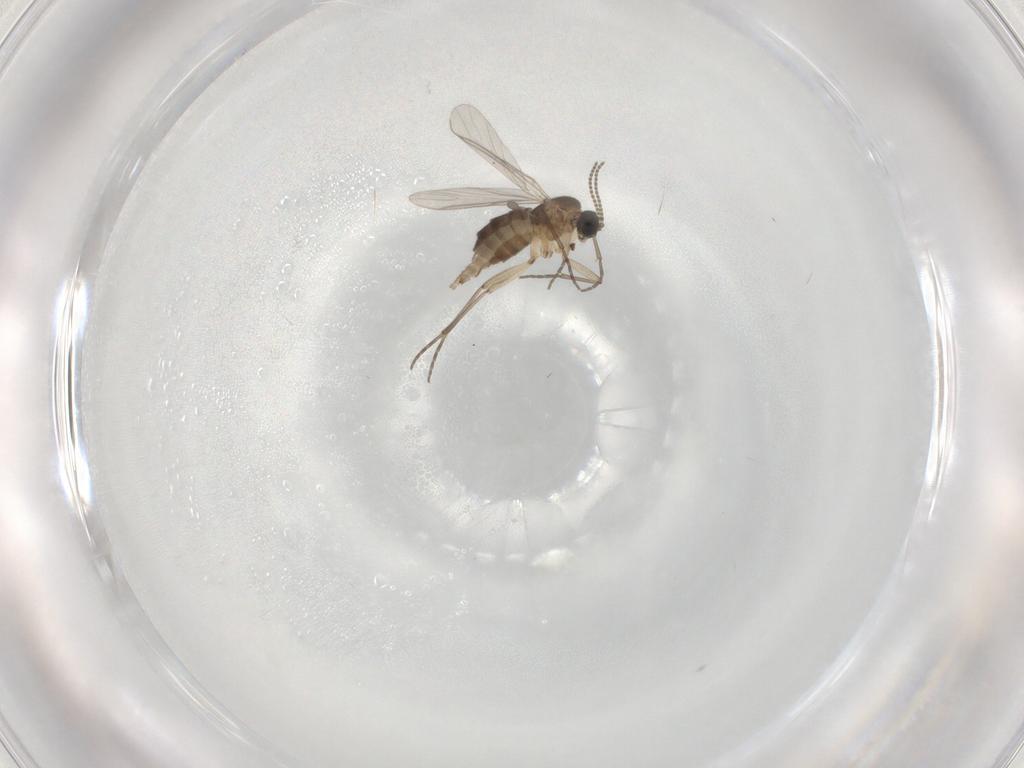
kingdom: Animalia
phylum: Arthropoda
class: Insecta
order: Diptera
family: Sciaridae
